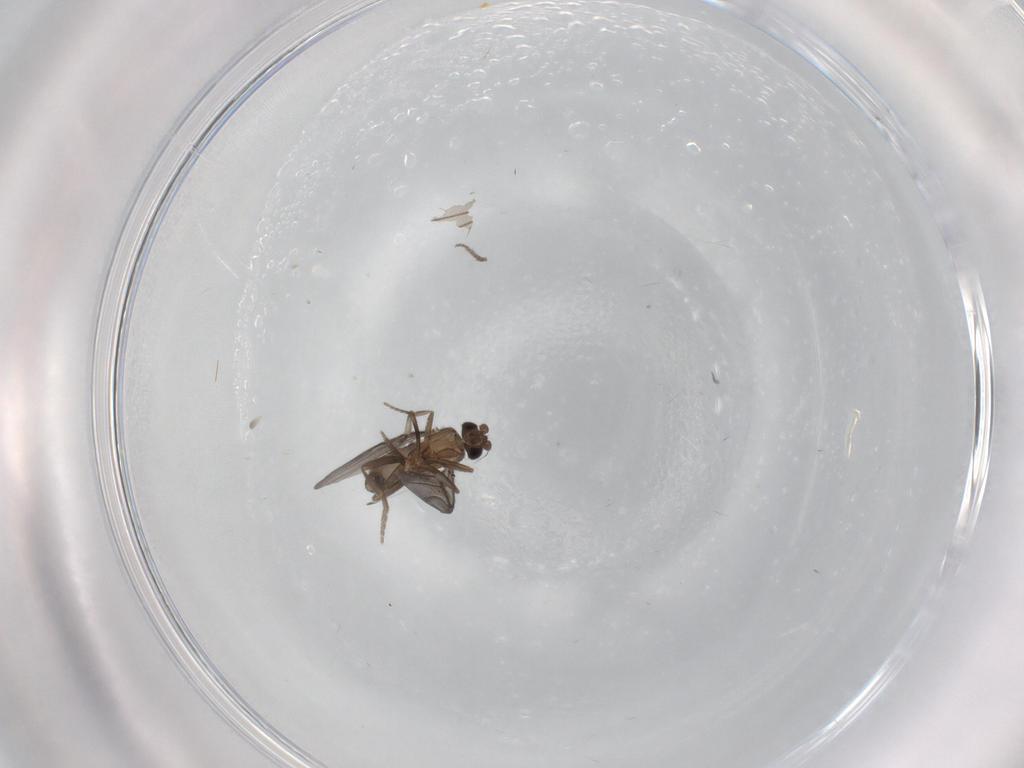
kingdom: Animalia
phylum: Arthropoda
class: Insecta
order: Diptera
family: Phoridae
